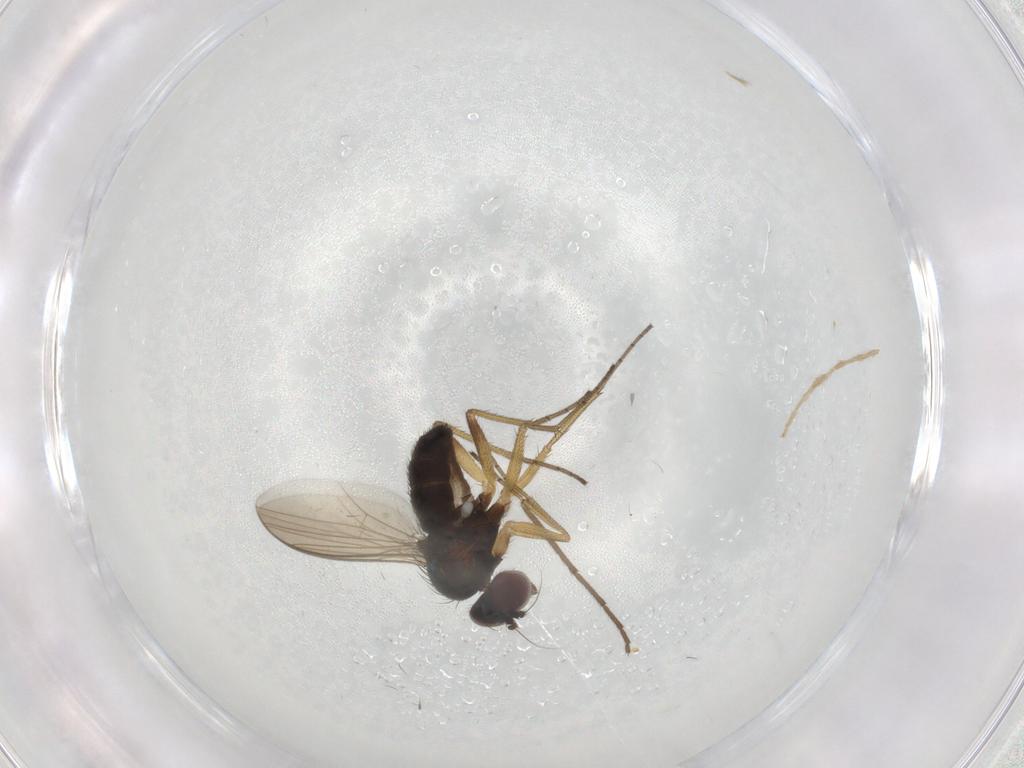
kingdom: Animalia
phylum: Arthropoda
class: Insecta
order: Diptera
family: Dolichopodidae
